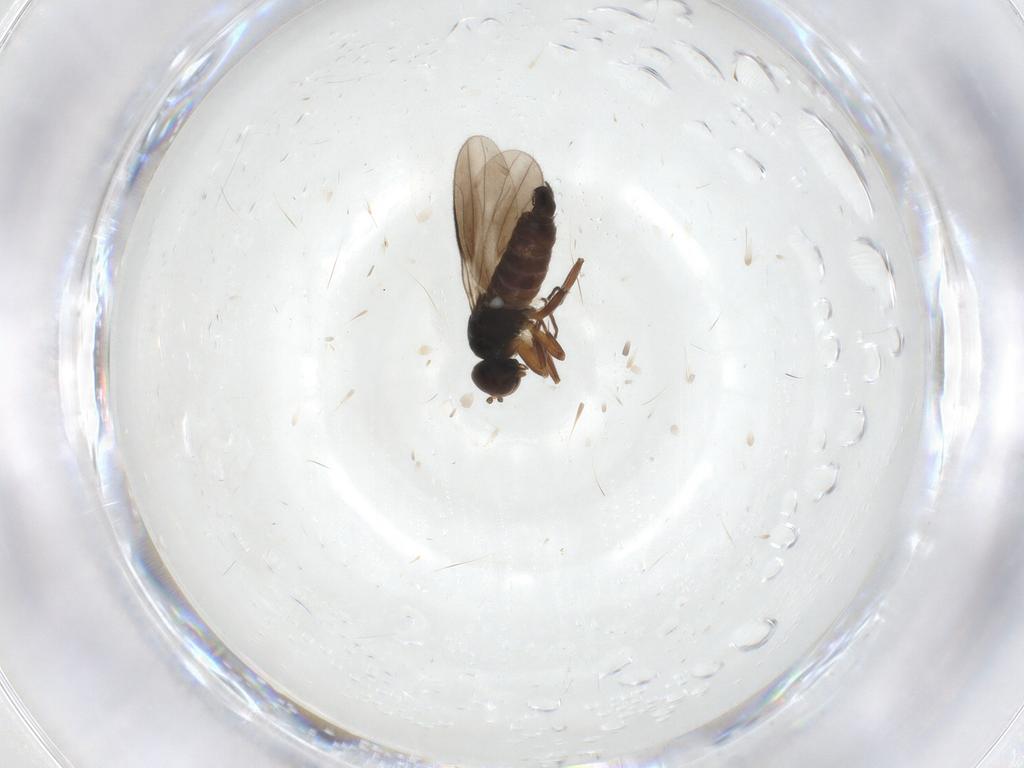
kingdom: Animalia
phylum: Arthropoda
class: Insecta
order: Diptera
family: Hybotidae
